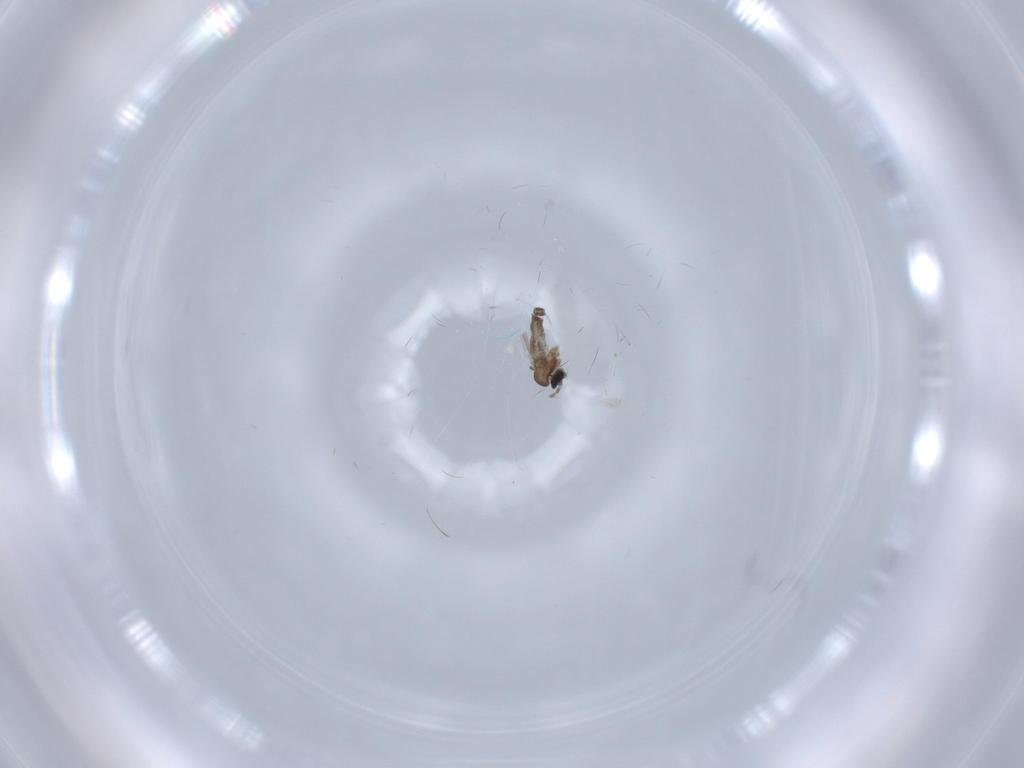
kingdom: Animalia
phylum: Arthropoda
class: Insecta
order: Diptera
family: Cecidomyiidae
